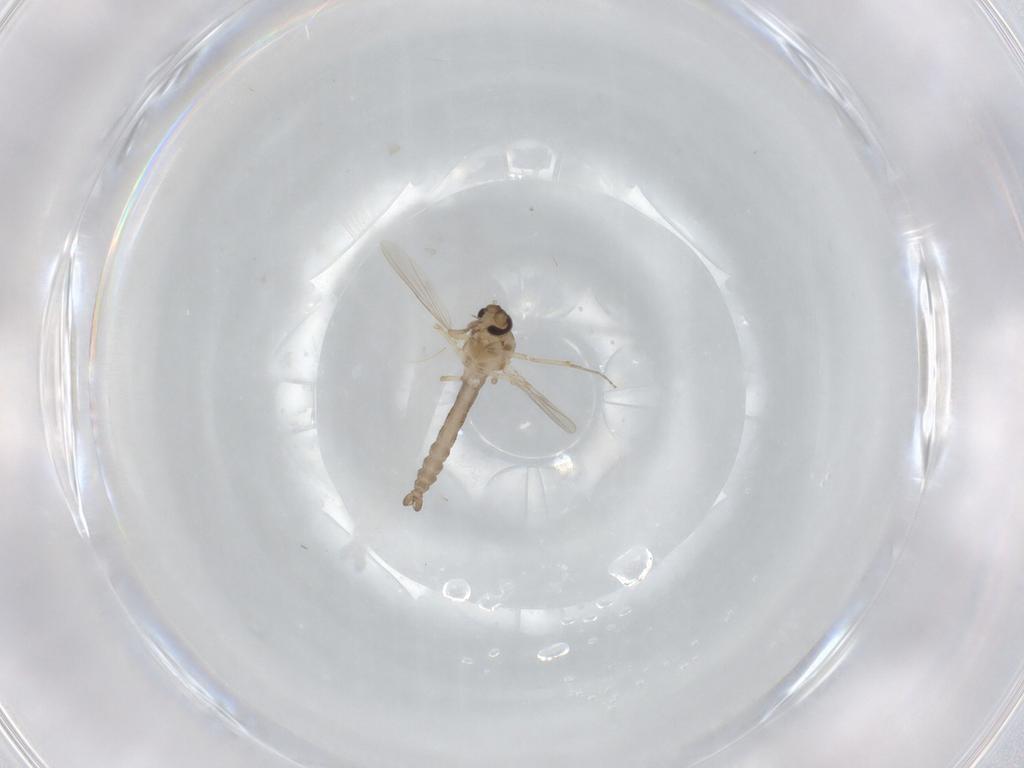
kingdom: Animalia
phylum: Arthropoda
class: Insecta
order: Diptera
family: Ceratopogonidae
